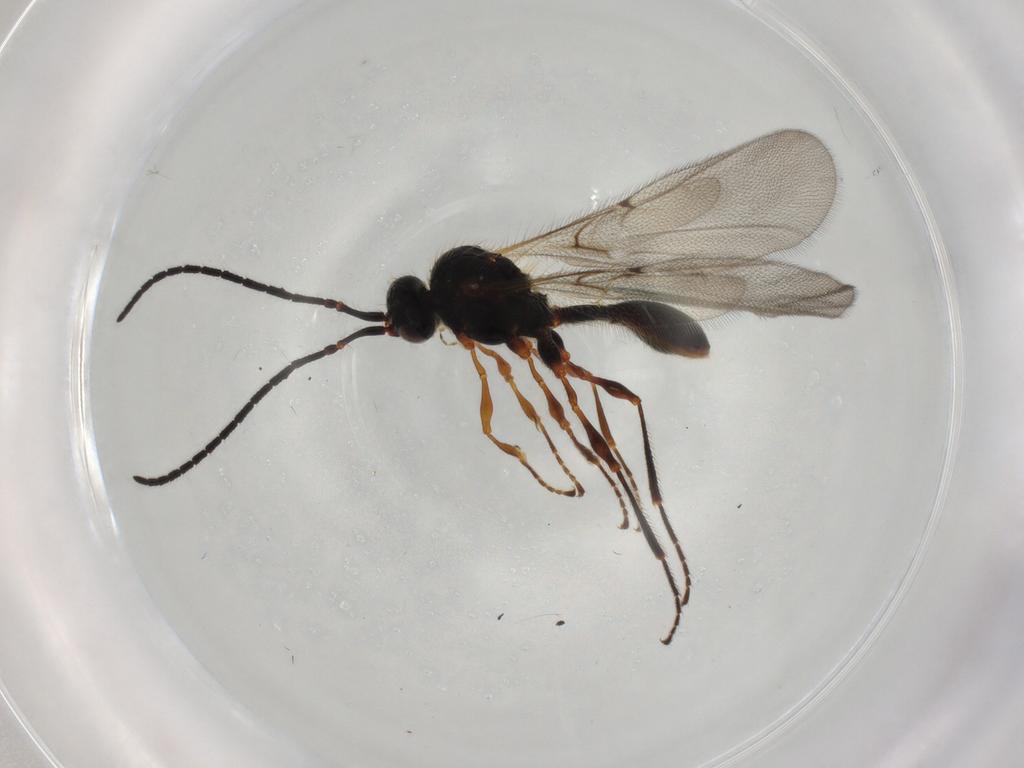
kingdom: Animalia
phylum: Arthropoda
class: Insecta
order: Hymenoptera
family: Diapriidae
